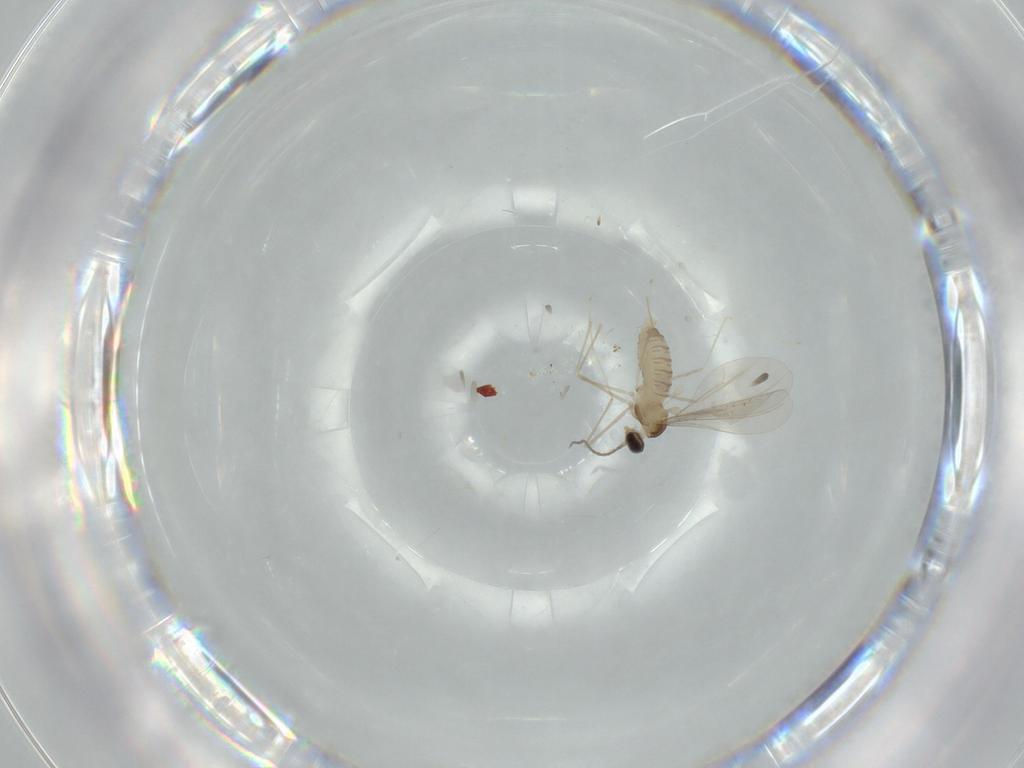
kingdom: Animalia
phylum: Arthropoda
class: Insecta
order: Diptera
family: Cecidomyiidae
